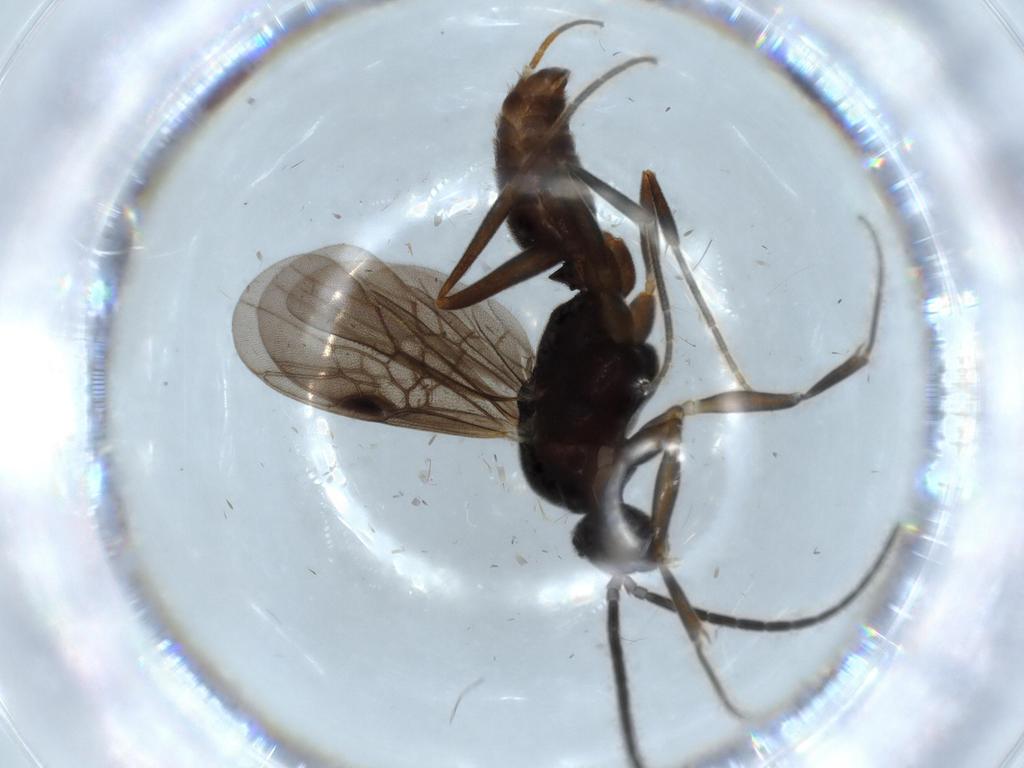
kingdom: Animalia
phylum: Arthropoda
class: Insecta
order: Hymenoptera
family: Formicidae
